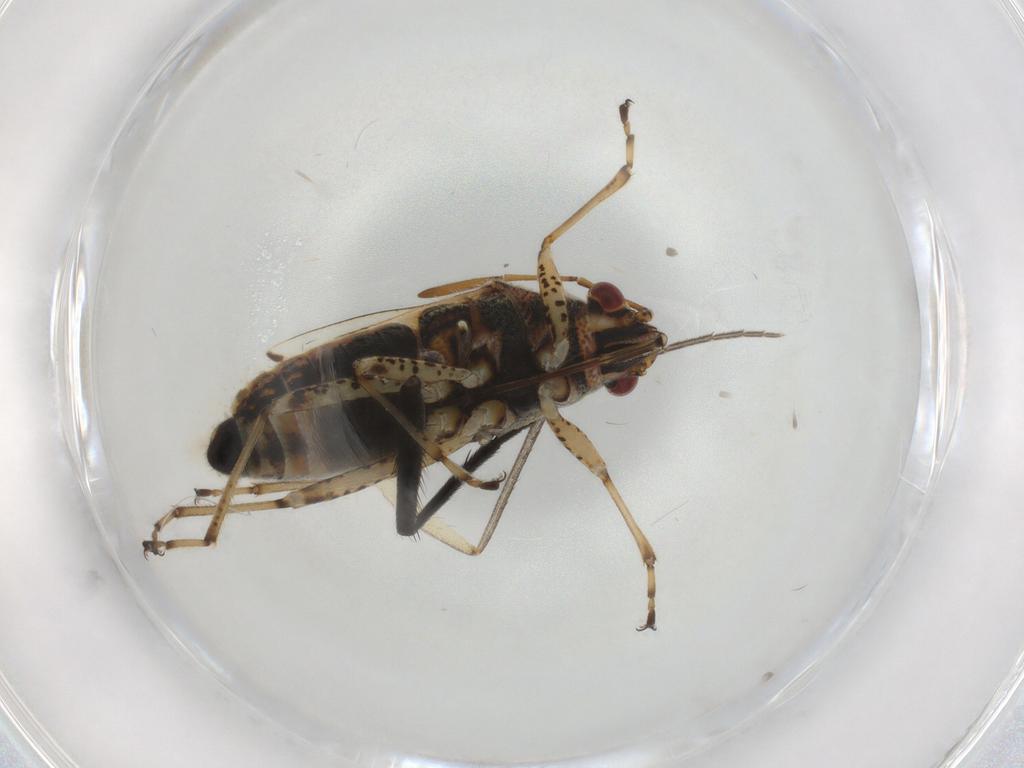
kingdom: Animalia
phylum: Arthropoda
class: Insecta
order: Hemiptera
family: Lygaeidae
